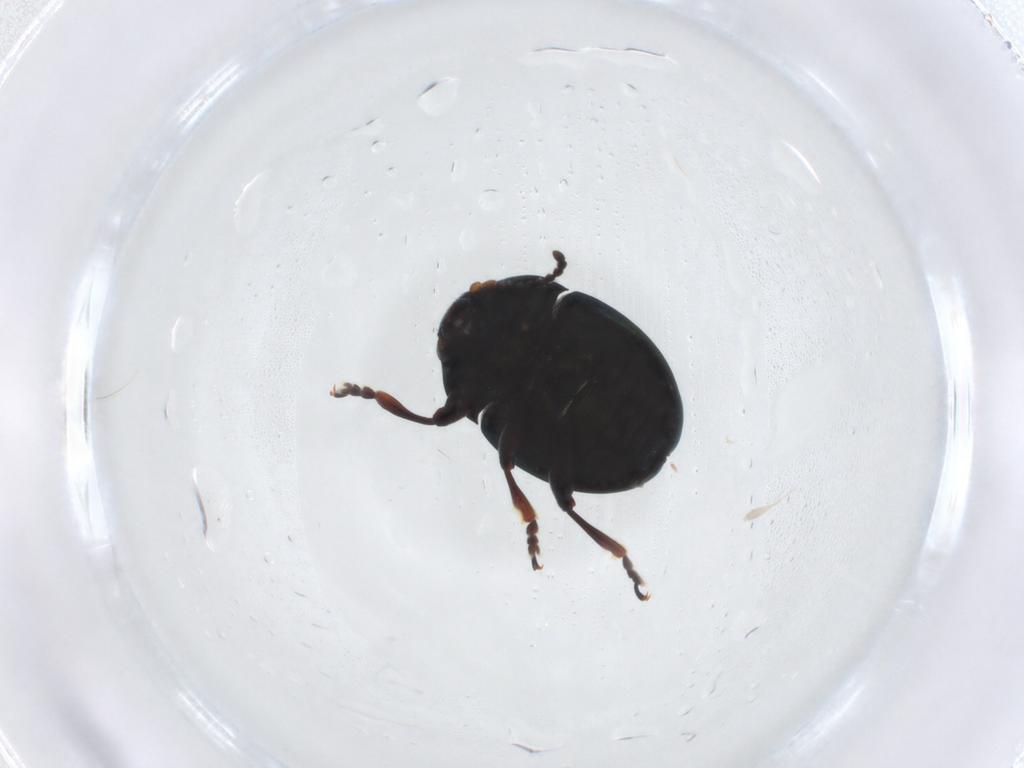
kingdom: Animalia
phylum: Arthropoda
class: Insecta
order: Coleoptera
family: Chrysomelidae
